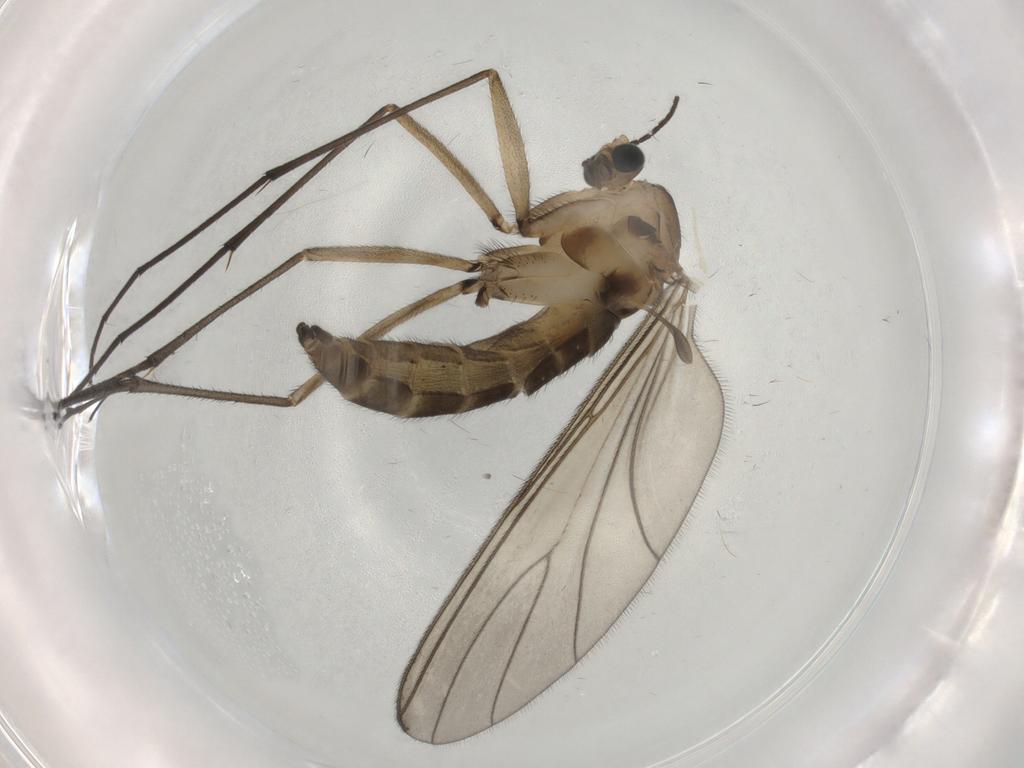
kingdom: Animalia
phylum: Arthropoda
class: Insecta
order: Diptera
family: Sciaridae
